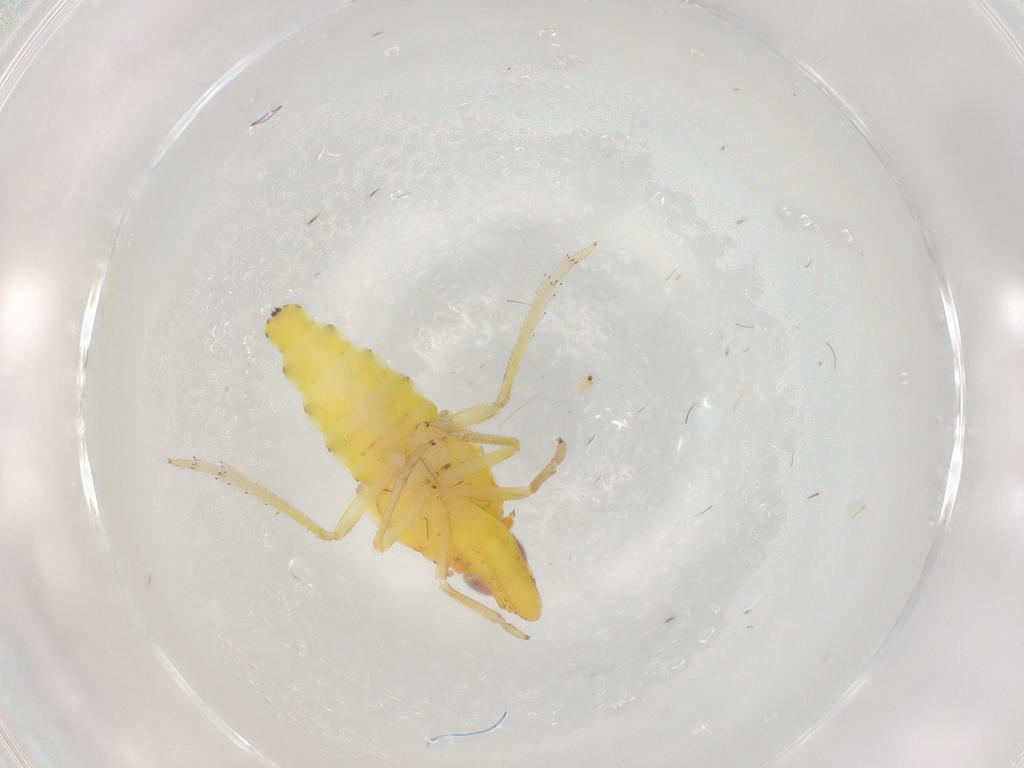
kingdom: Animalia
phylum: Arthropoda
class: Insecta
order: Hemiptera
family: Tropiduchidae
